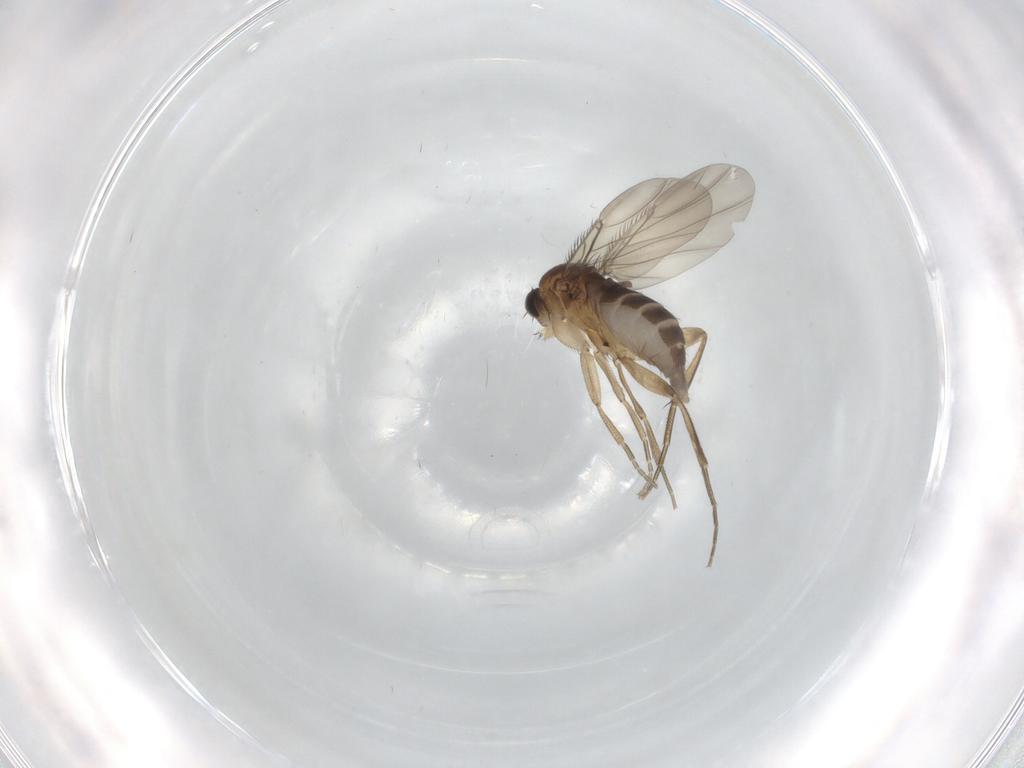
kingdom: Animalia
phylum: Arthropoda
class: Insecta
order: Diptera
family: Phoridae
